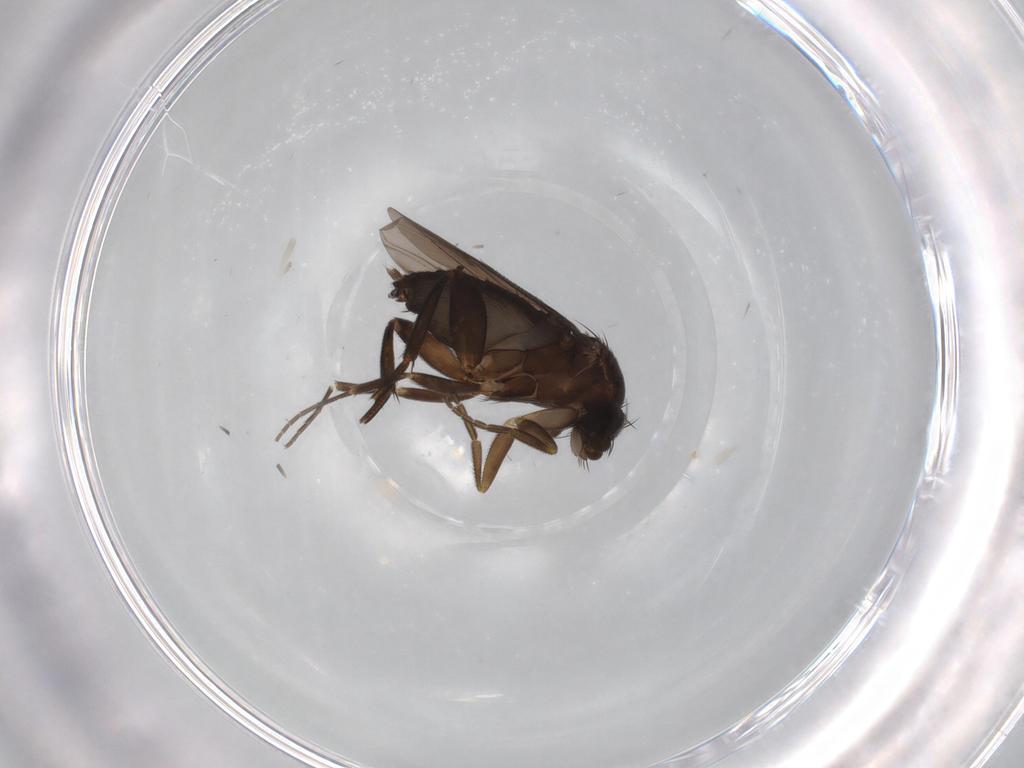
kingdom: Animalia
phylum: Arthropoda
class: Insecta
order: Diptera
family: Phoridae
